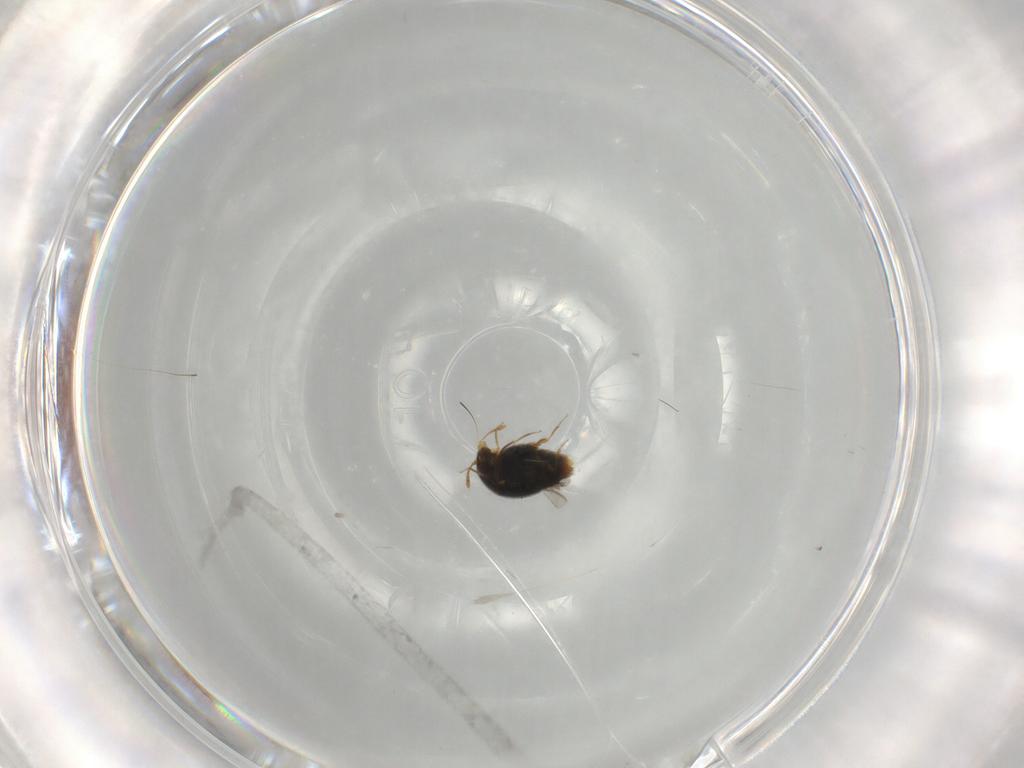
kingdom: Animalia
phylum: Arthropoda
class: Insecta
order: Coleoptera
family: Staphylinidae
